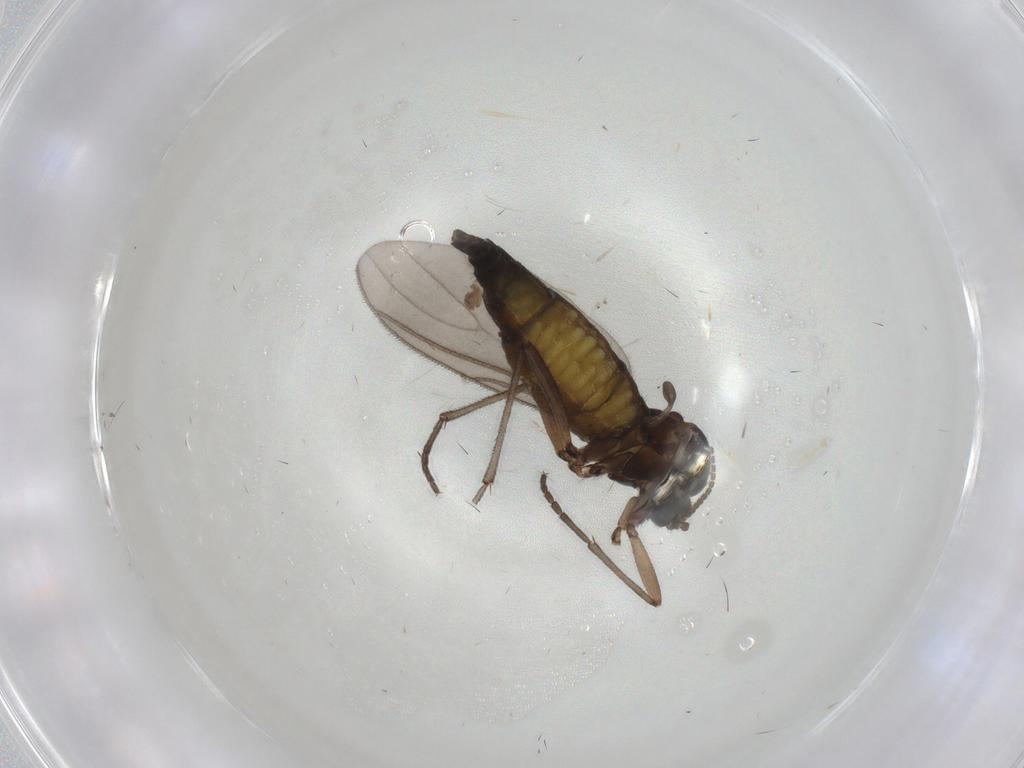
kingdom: Animalia
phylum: Arthropoda
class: Insecta
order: Diptera
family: Sciaridae
